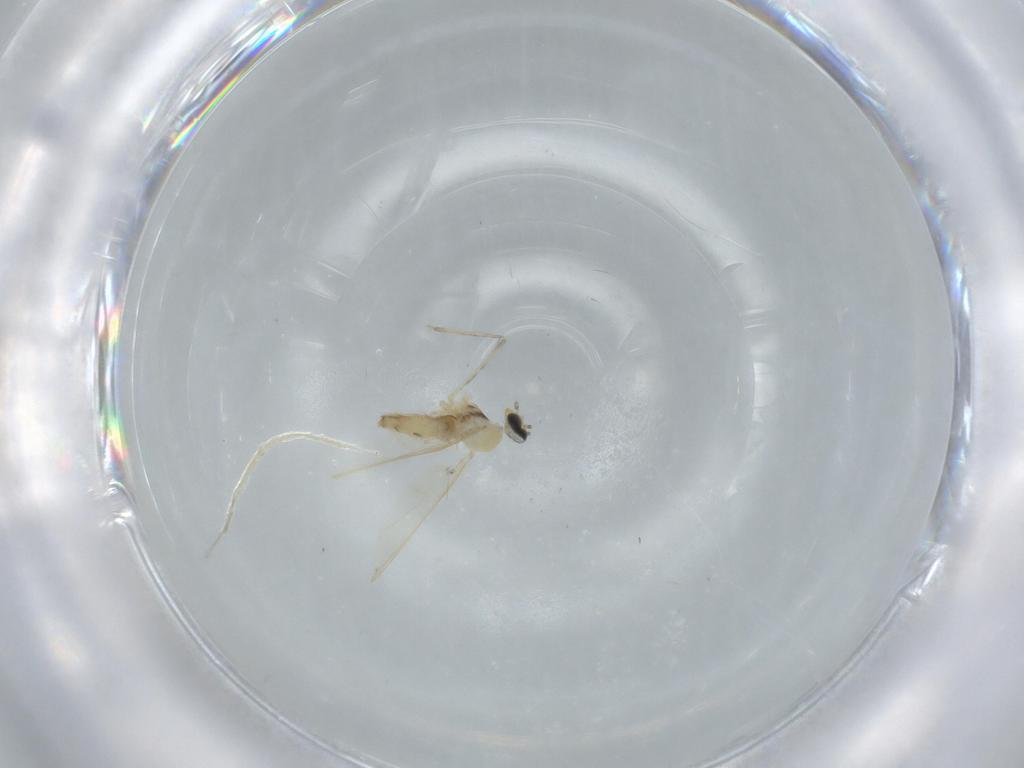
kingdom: Animalia
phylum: Arthropoda
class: Insecta
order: Diptera
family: Cecidomyiidae
